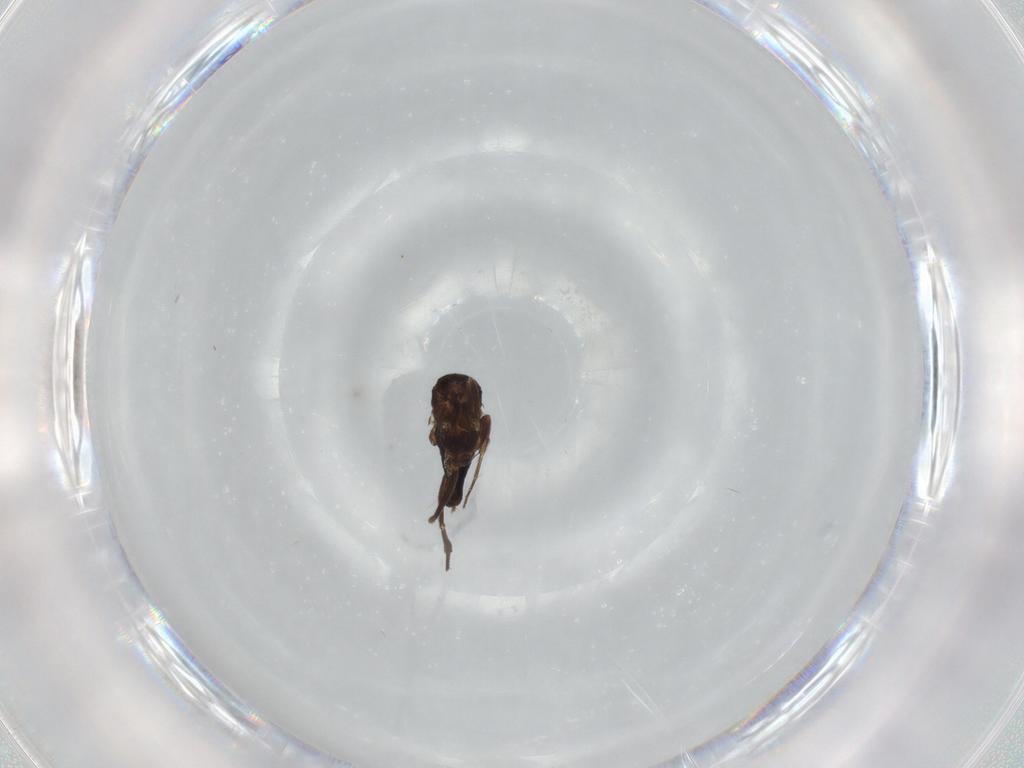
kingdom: Animalia
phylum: Arthropoda
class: Insecta
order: Diptera
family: Phoridae
